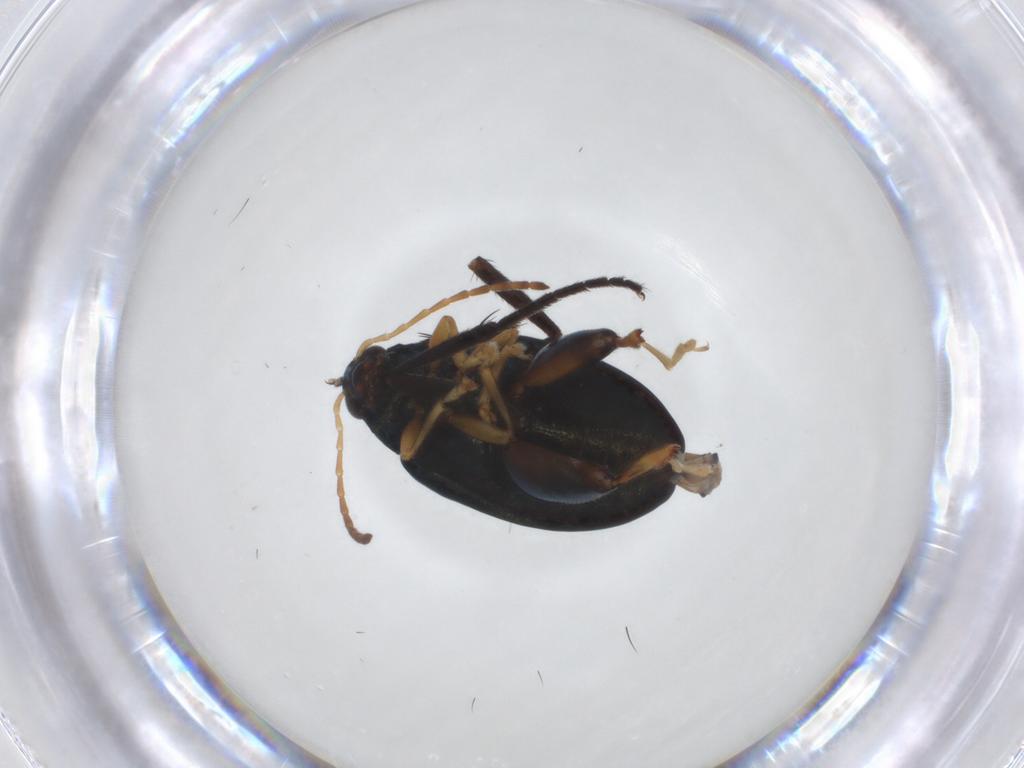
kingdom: Animalia
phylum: Arthropoda
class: Insecta
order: Coleoptera
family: Chrysomelidae
